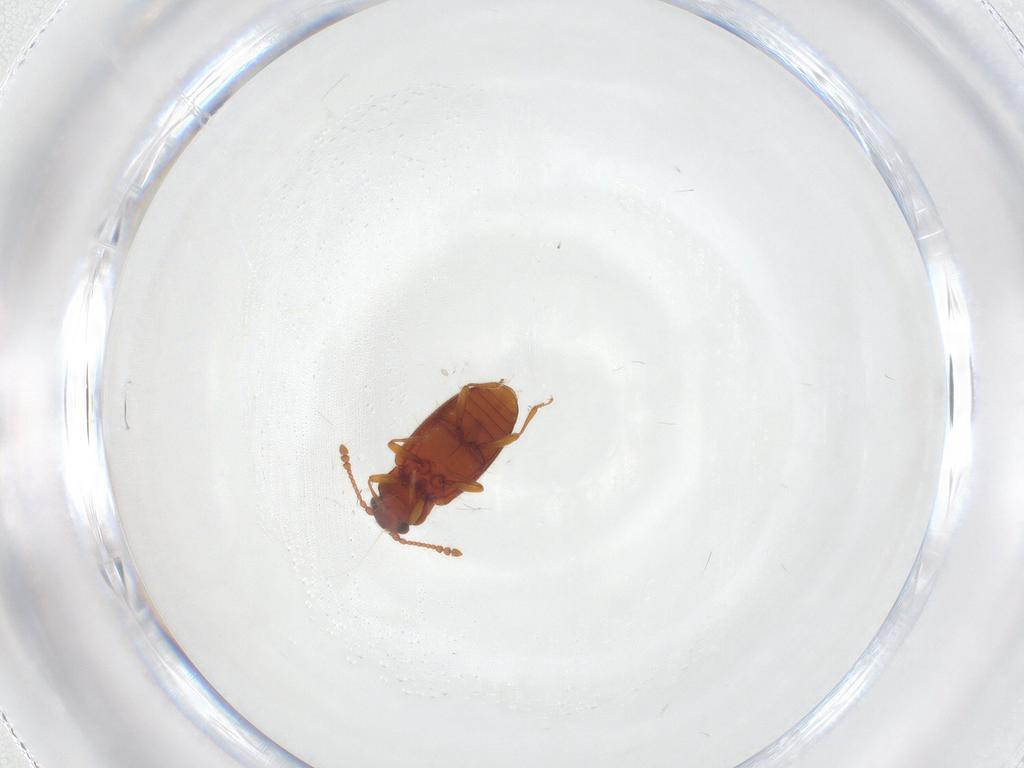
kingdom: Animalia
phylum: Arthropoda
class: Insecta
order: Coleoptera
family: Cryptophagidae
